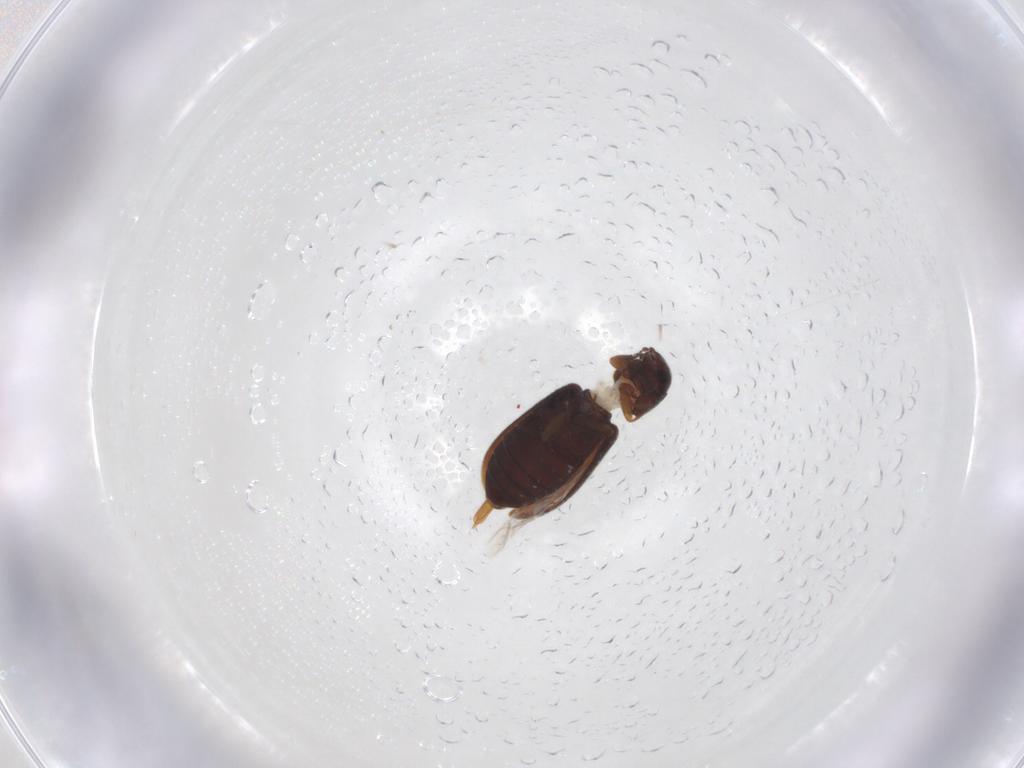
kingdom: Animalia
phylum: Arthropoda
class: Insecta
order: Coleoptera
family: Rhadalidae
